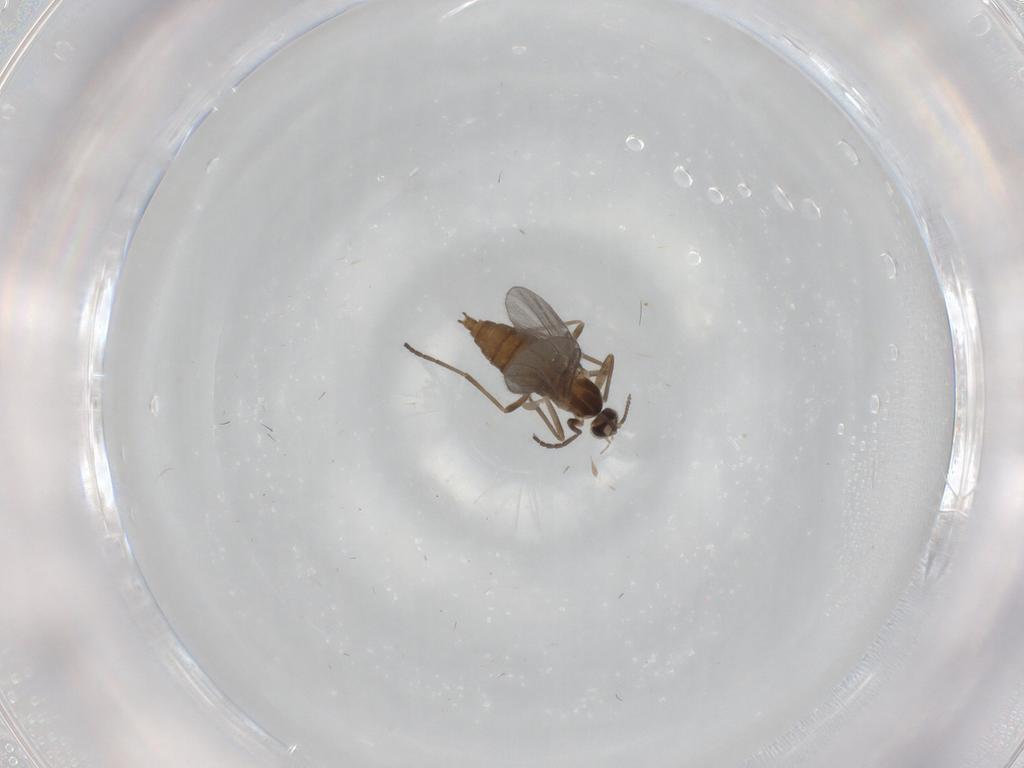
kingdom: Animalia
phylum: Arthropoda
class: Insecta
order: Diptera
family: Cecidomyiidae
